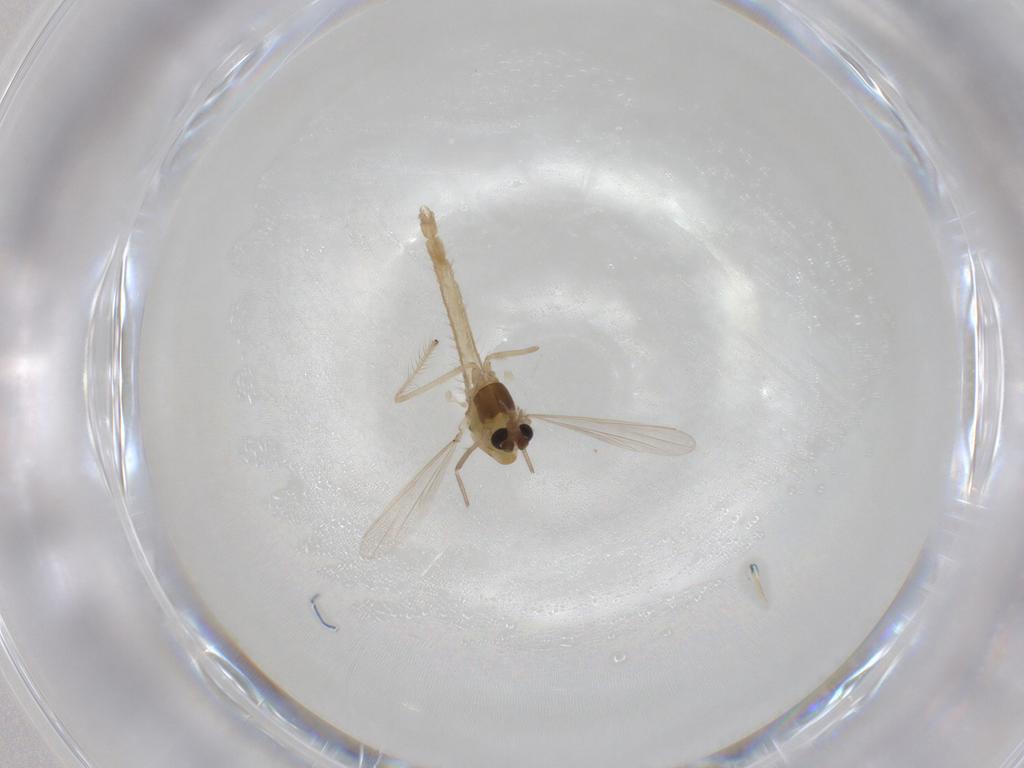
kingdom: Animalia
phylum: Arthropoda
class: Insecta
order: Diptera
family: Chironomidae
